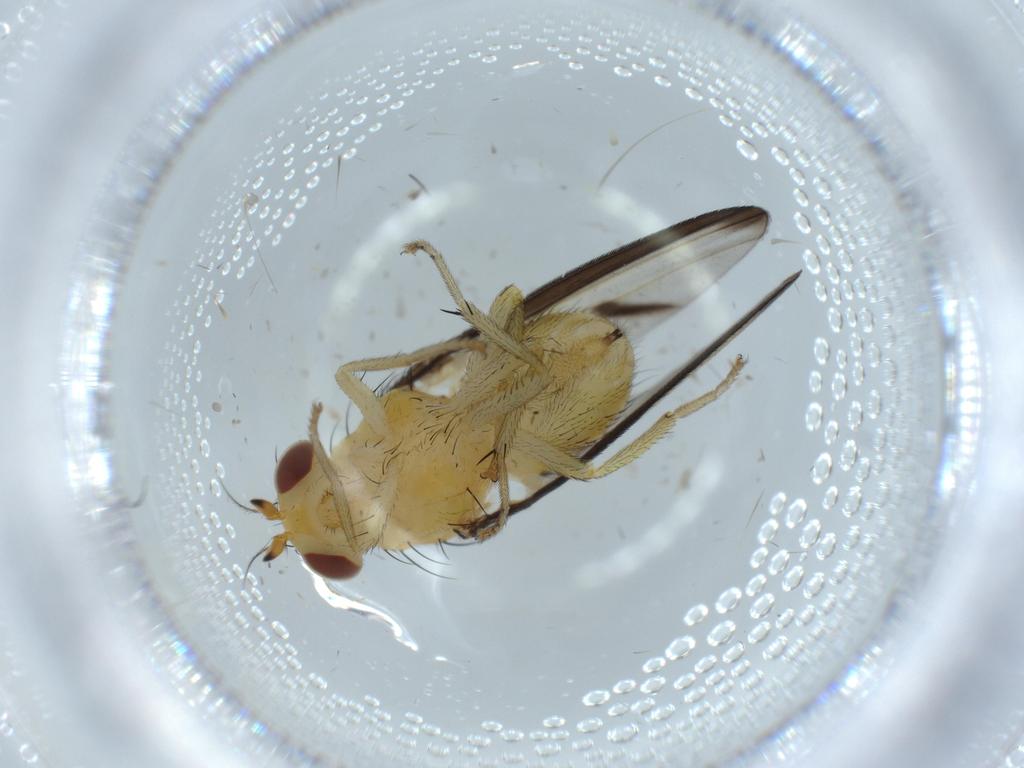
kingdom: Animalia
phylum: Arthropoda
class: Insecta
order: Diptera
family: Lauxaniidae
